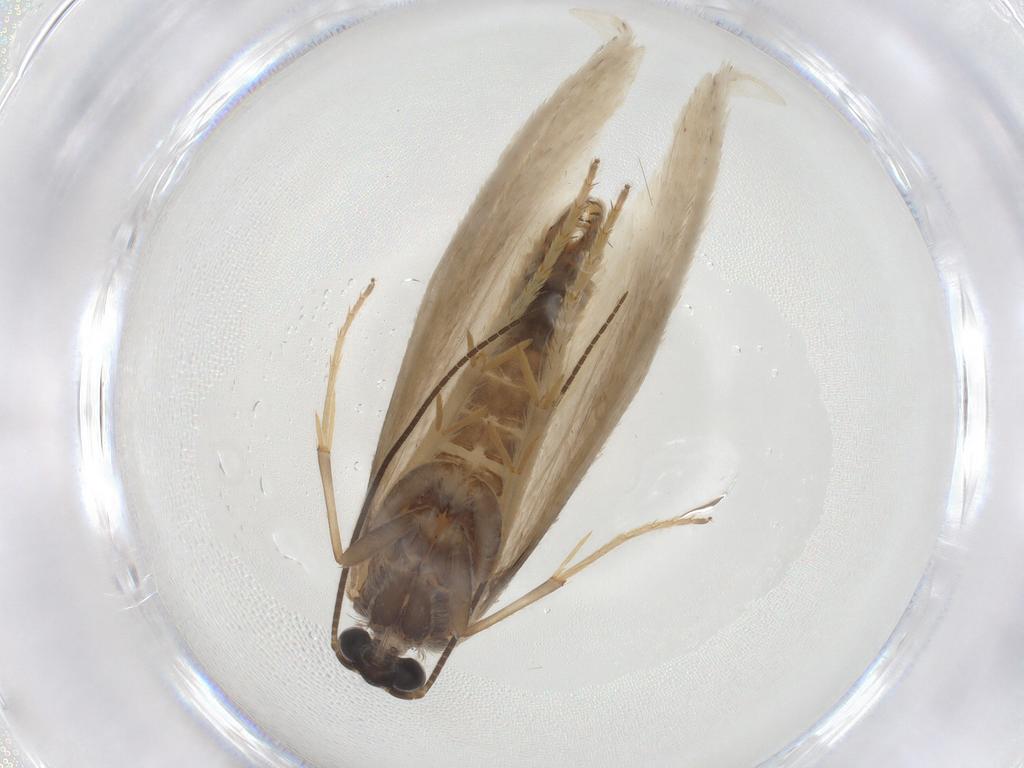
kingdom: Animalia
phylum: Arthropoda
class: Insecta
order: Lepidoptera
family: Tridentaformidae
